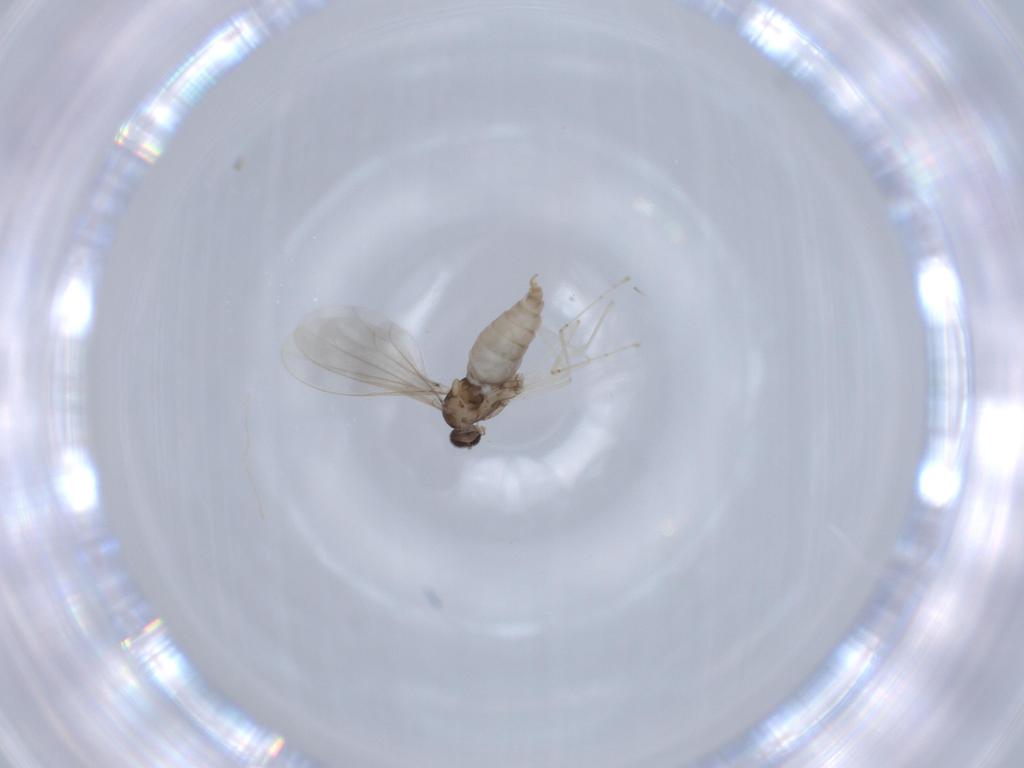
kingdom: Animalia
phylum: Arthropoda
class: Insecta
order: Diptera
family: Cecidomyiidae
